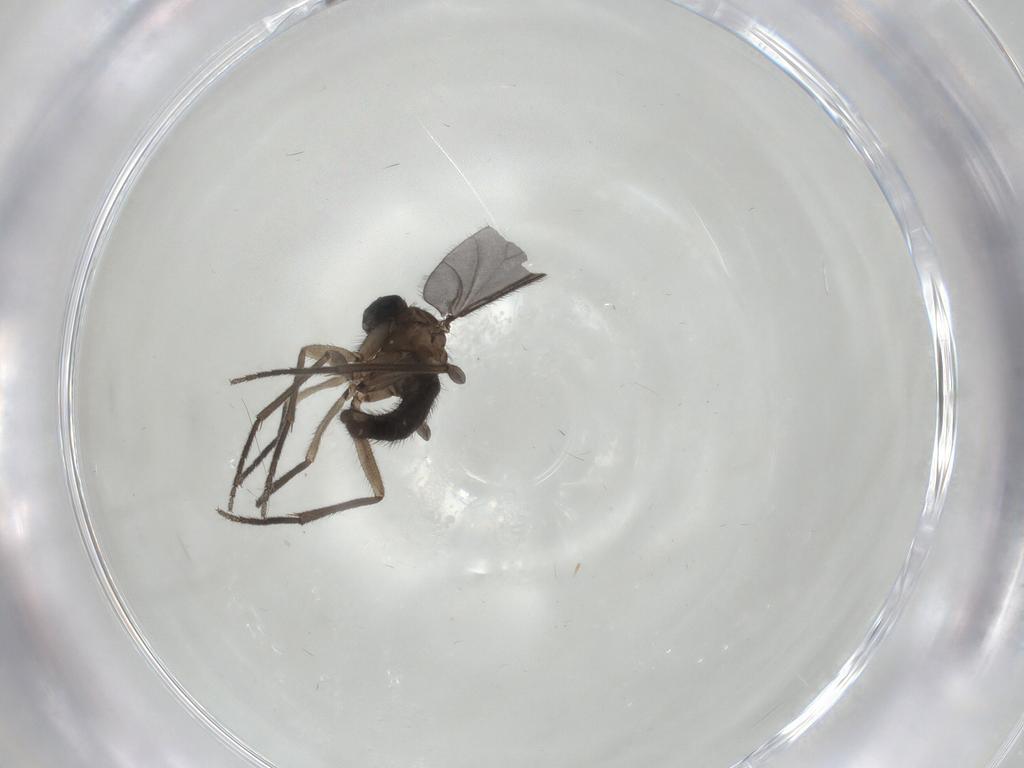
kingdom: Animalia
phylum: Arthropoda
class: Insecta
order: Diptera
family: Sciaridae
